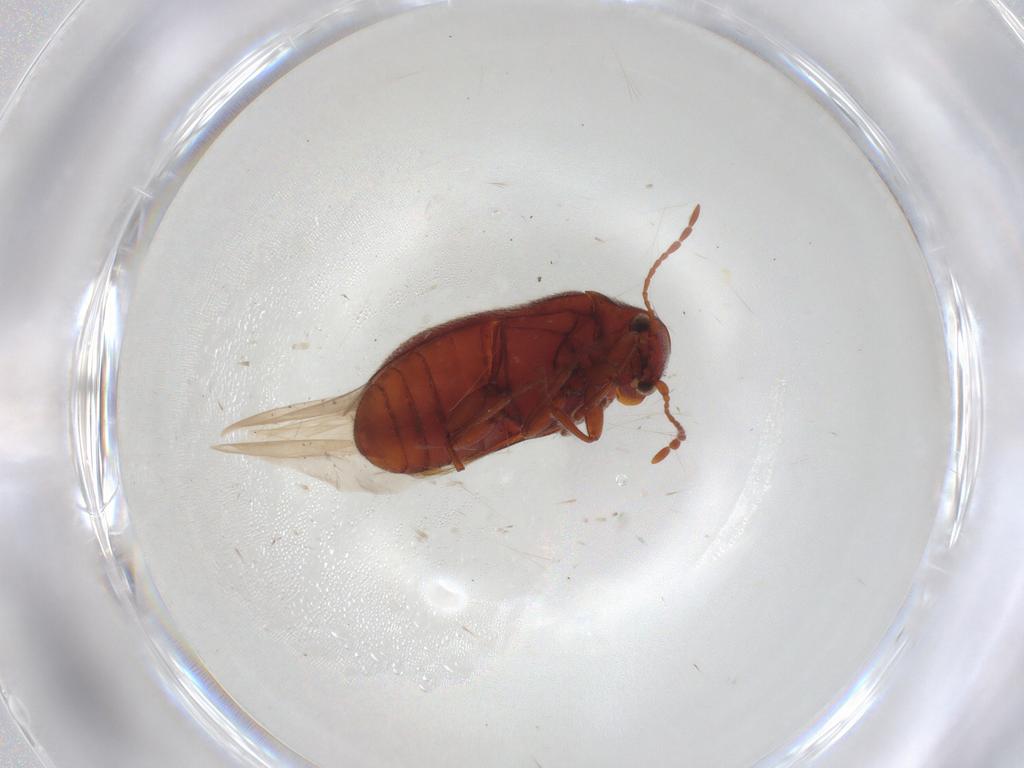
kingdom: Animalia
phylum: Arthropoda
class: Insecta
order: Coleoptera
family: Ptinidae
